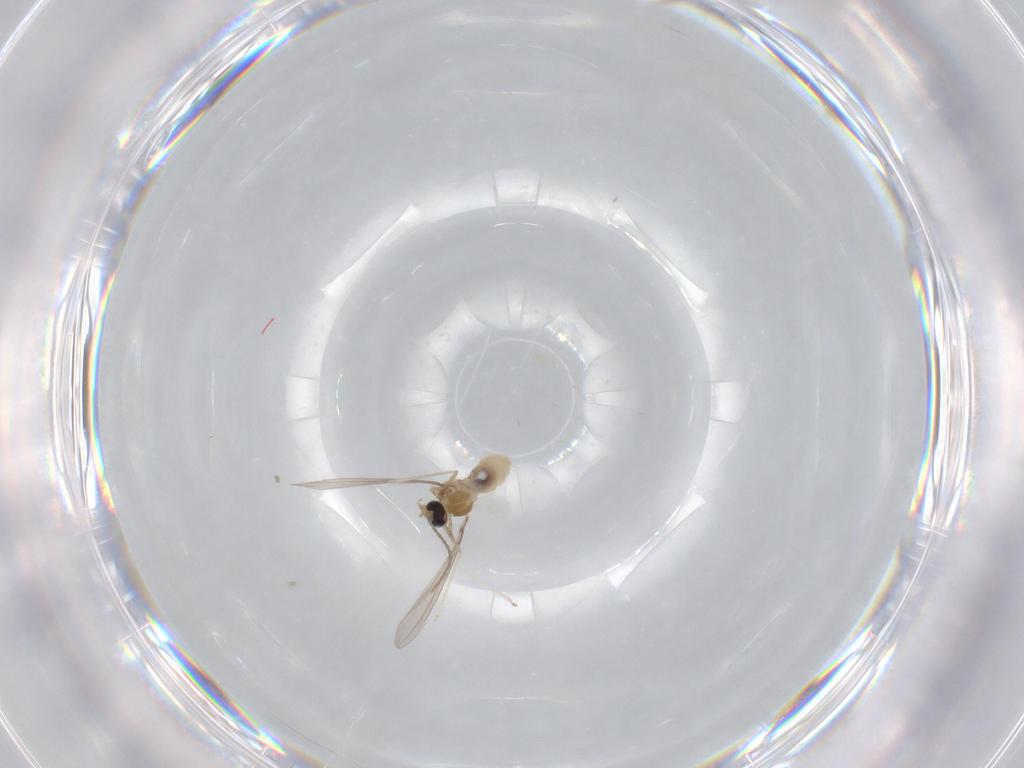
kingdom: Animalia
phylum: Arthropoda
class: Insecta
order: Diptera
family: Cecidomyiidae
